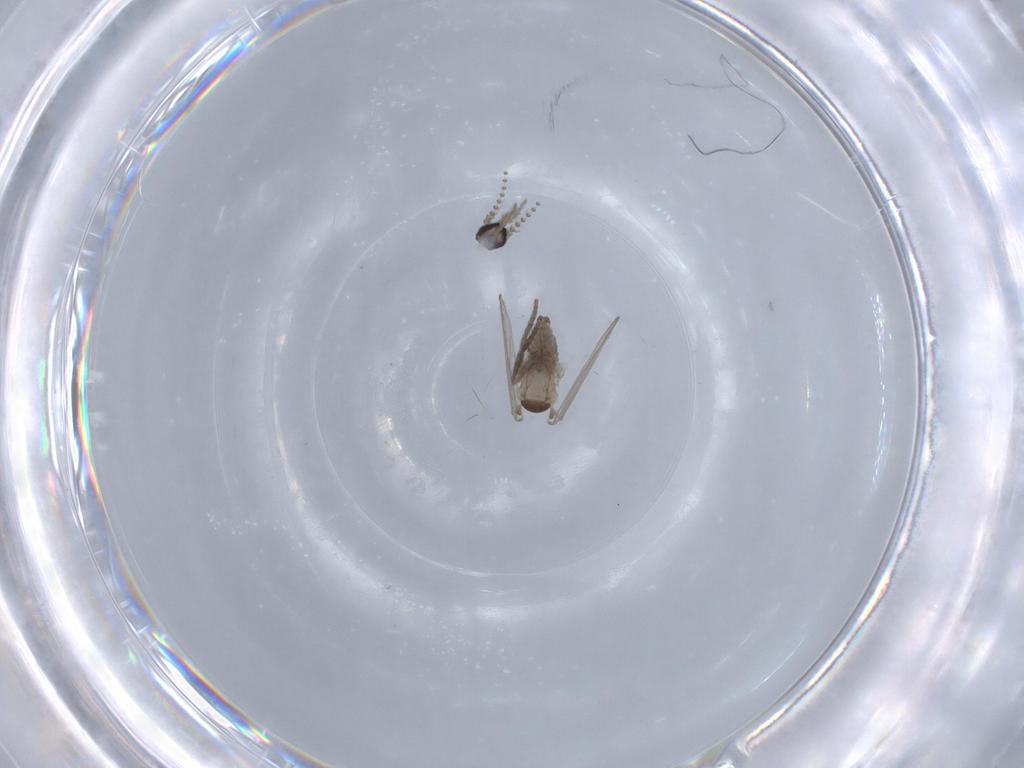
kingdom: Animalia
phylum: Arthropoda
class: Insecta
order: Diptera
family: Psychodidae
